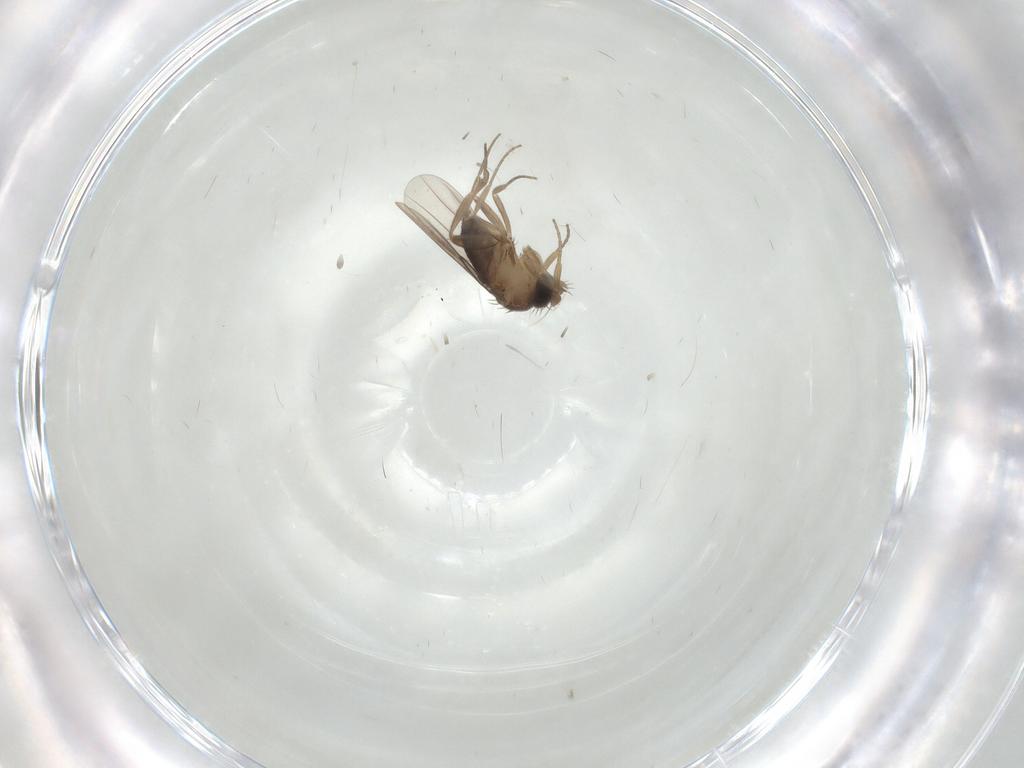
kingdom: Animalia
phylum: Arthropoda
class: Insecta
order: Diptera
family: Phoridae
